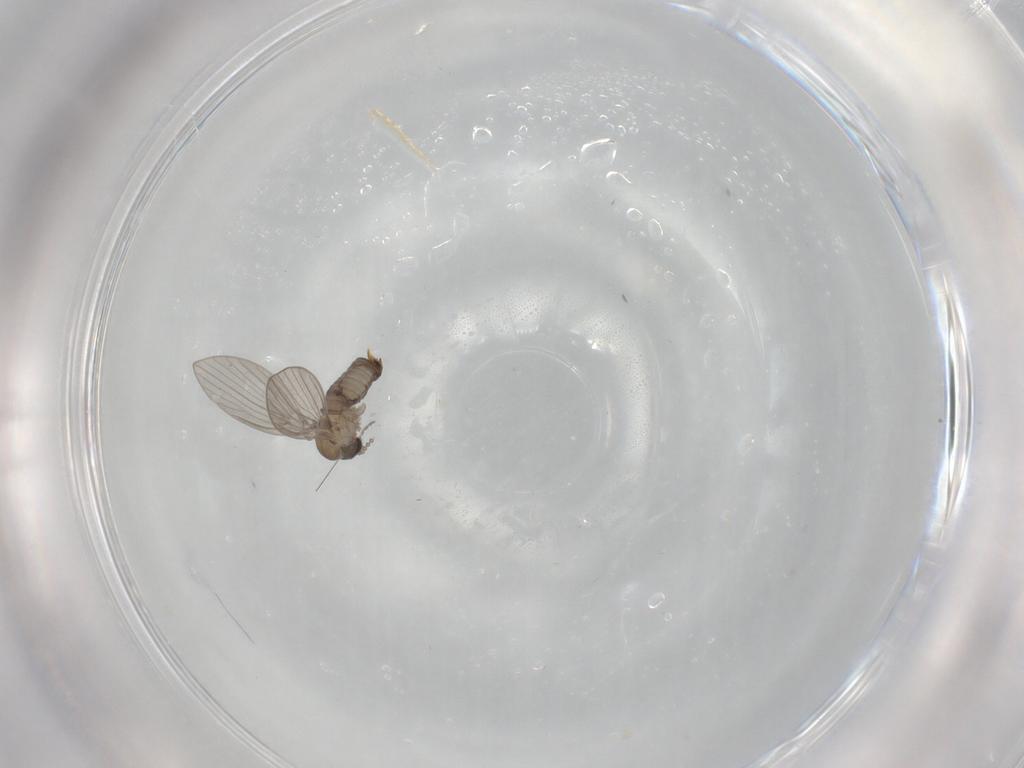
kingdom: Animalia
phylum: Arthropoda
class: Insecta
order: Diptera
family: Psychodidae
